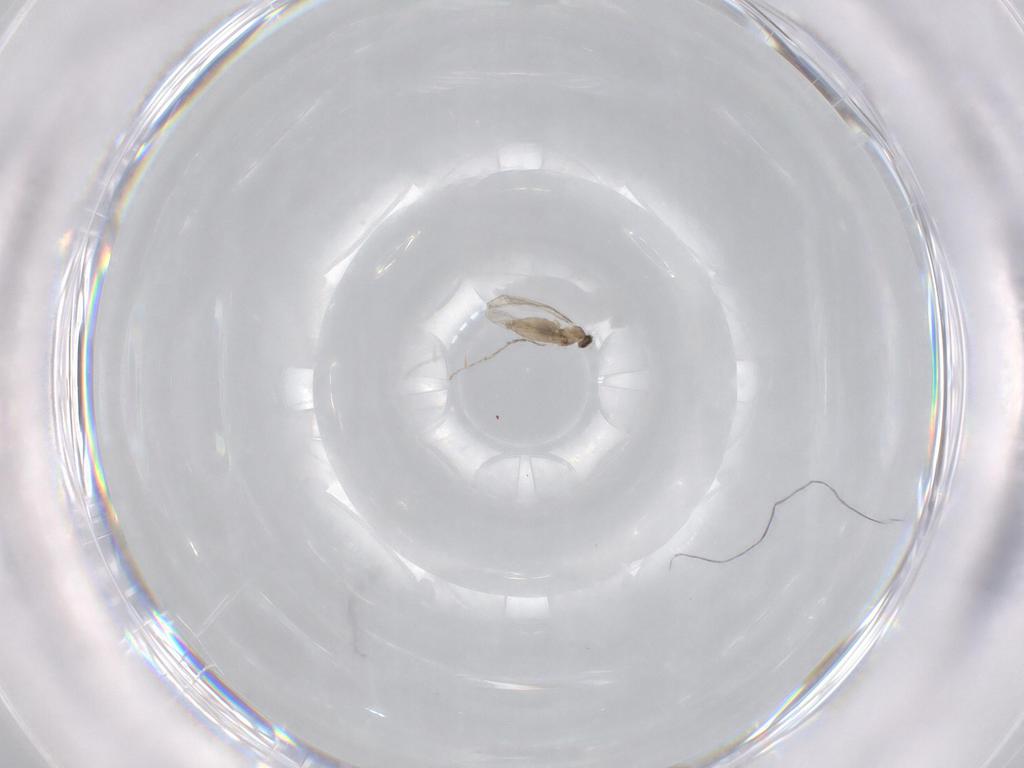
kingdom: Animalia
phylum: Arthropoda
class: Insecta
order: Diptera
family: Cecidomyiidae
